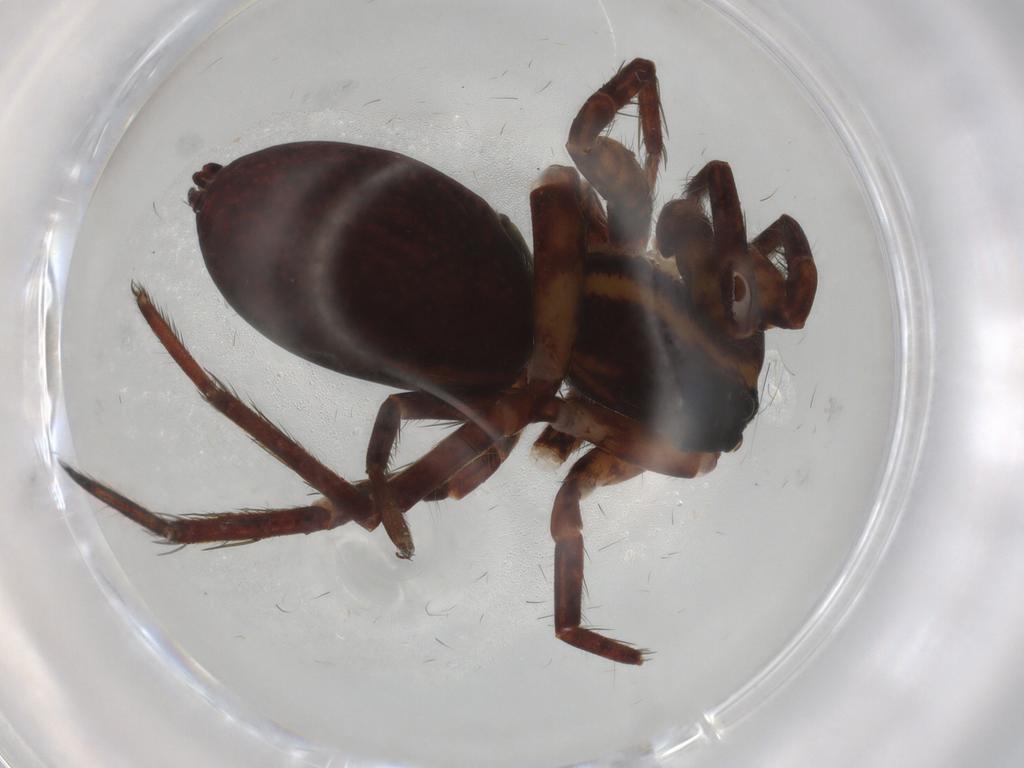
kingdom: Animalia
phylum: Arthropoda
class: Arachnida
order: Araneae
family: Lycosidae
